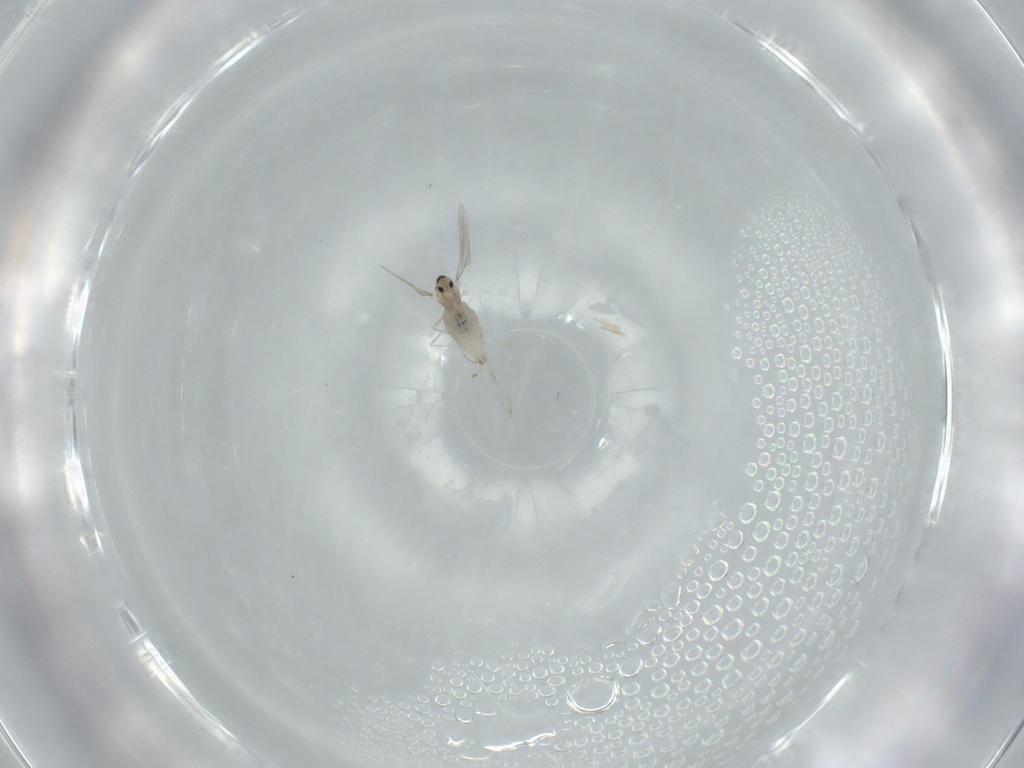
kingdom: Animalia
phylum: Arthropoda
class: Insecta
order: Diptera
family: Cecidomyiidae
